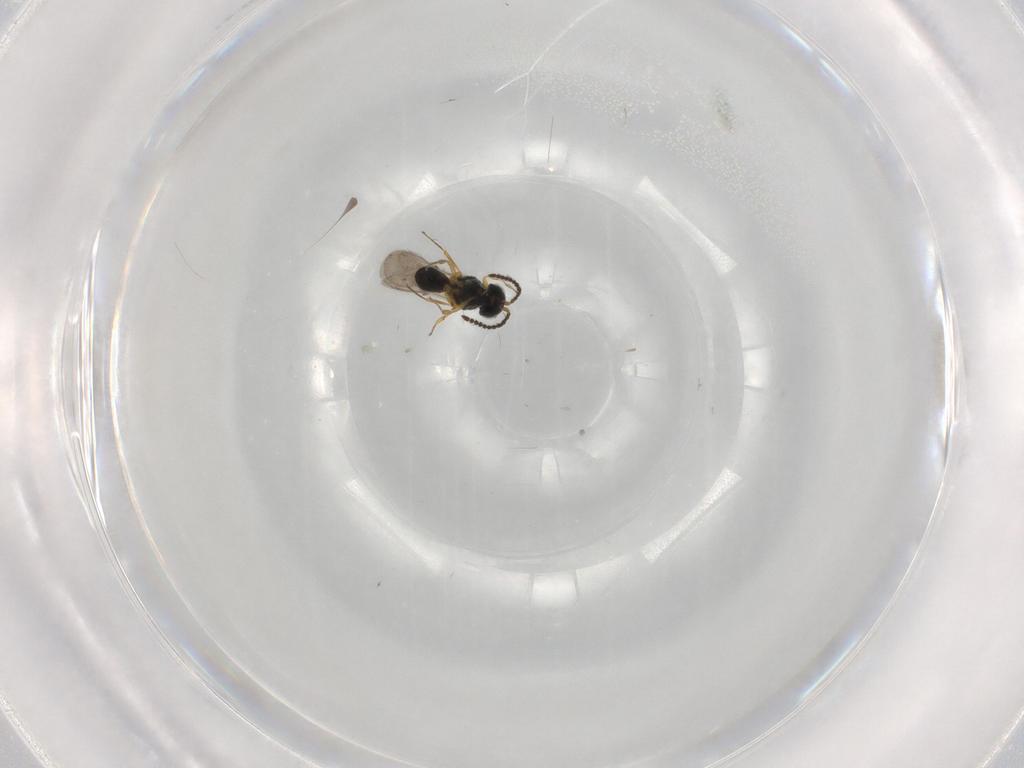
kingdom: Animalia
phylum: Arthropoda
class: Insecta
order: Hymenoptera
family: Scelionidae
